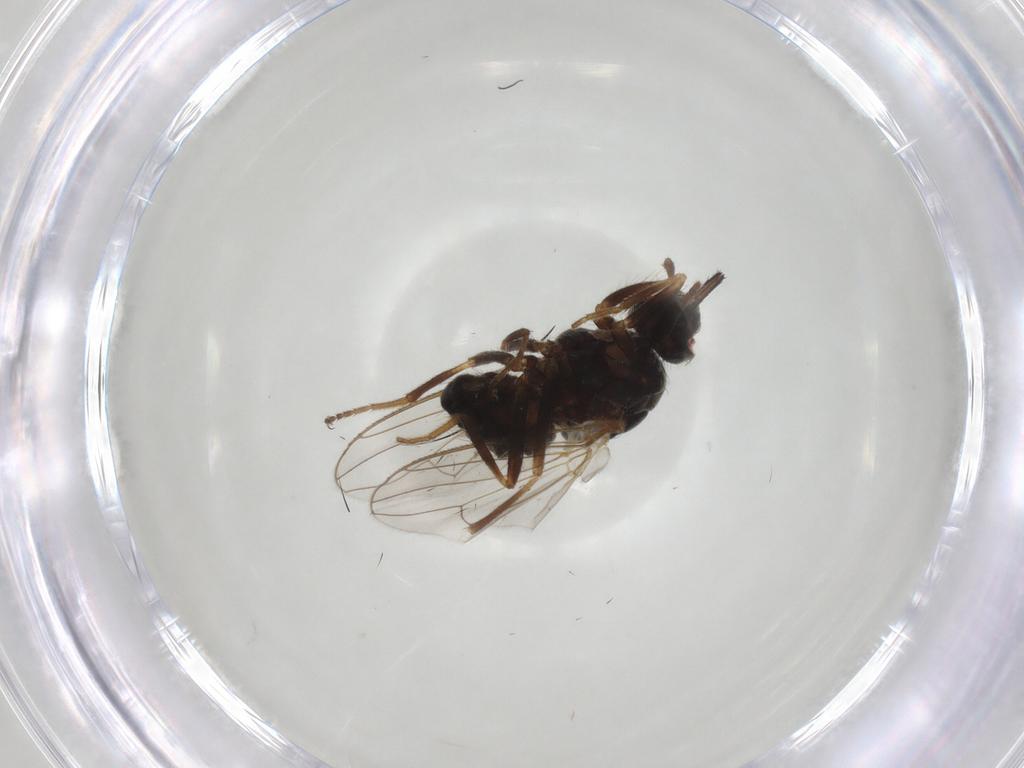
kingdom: Animalia
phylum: Arthropoda
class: Insecta
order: Diptera
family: Muscidae
